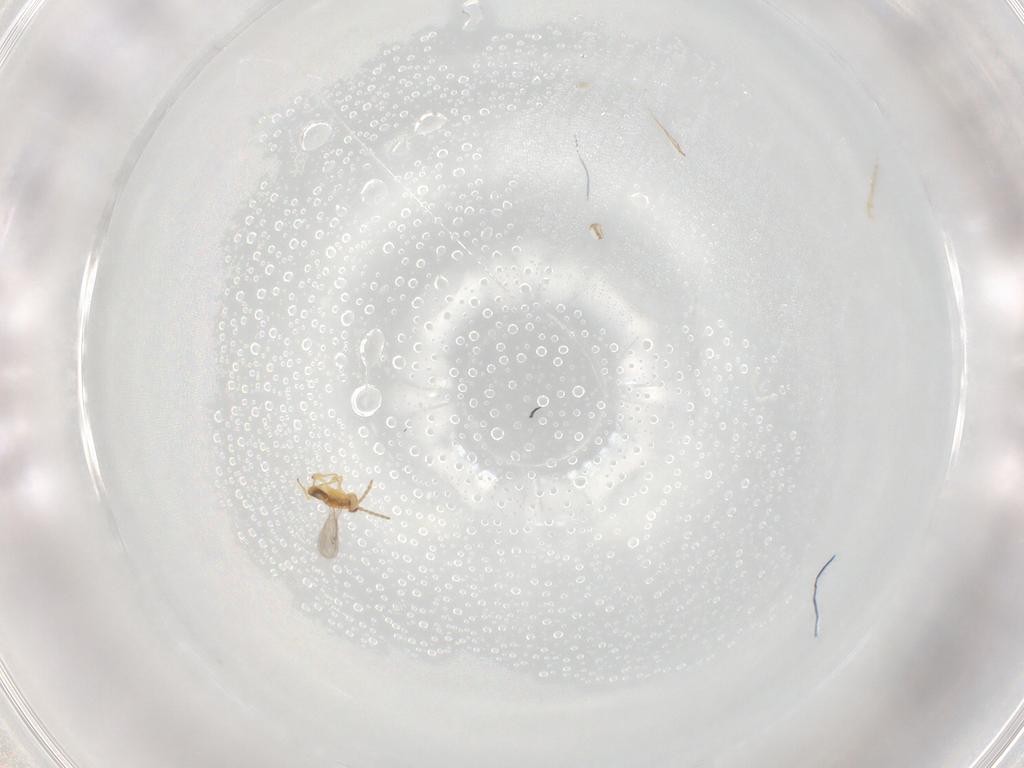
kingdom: Animalia
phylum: Arthropoda
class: Insecta
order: Hymenoptera
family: Aphelinidae
